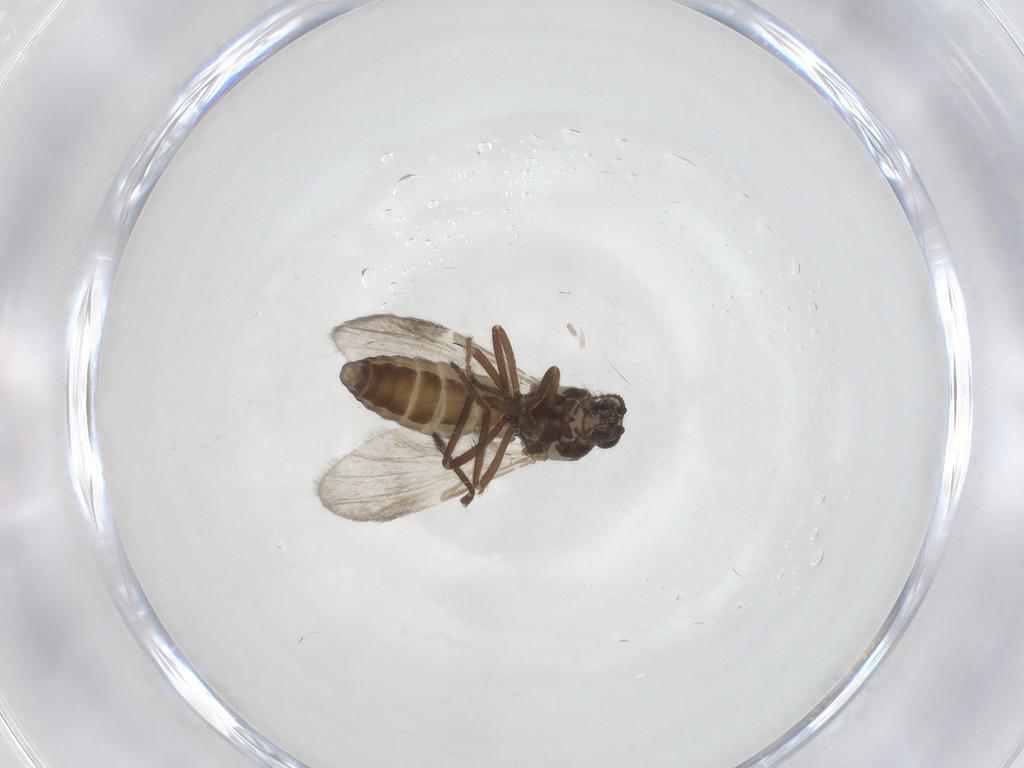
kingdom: Animalia
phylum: Arthropoda
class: Insecta
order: Diptera
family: Ceratopogonidae
